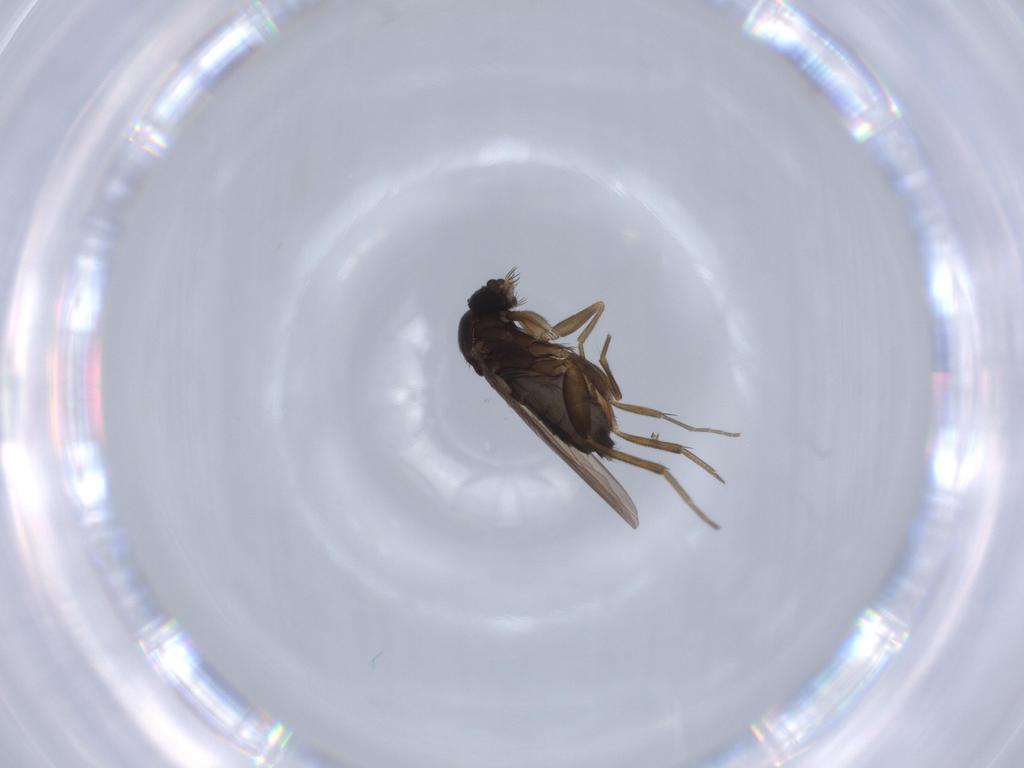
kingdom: Animalia
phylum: Arthropoda
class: Insecta
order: Diptera
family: Phoridae
